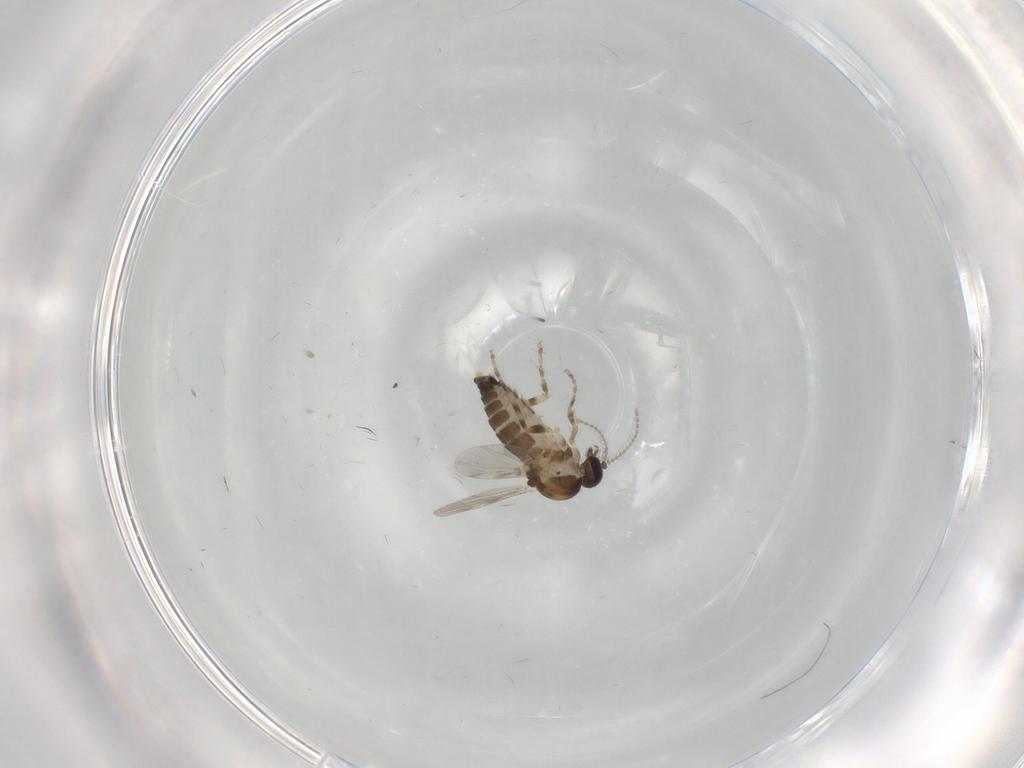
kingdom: Animalia
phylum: Arthropoda
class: Insecta
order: Diptera
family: Ceratopogonidae
